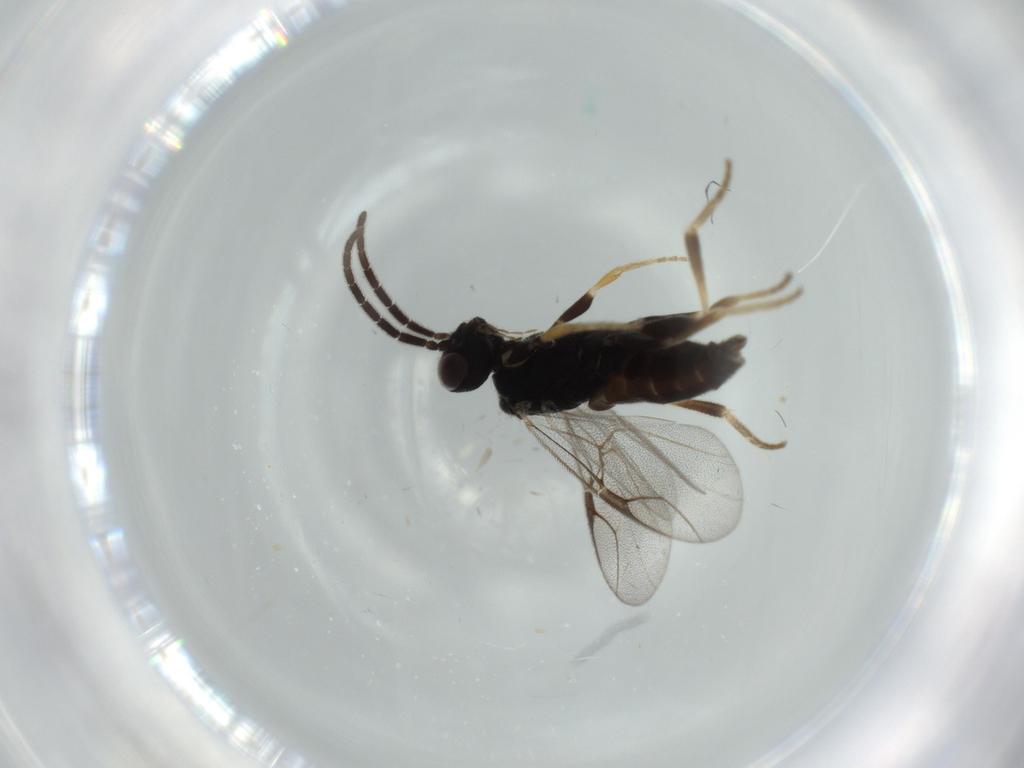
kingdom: Animalia
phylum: Arthropoda
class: Insecta
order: Hymenoptera
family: Dryinidae
